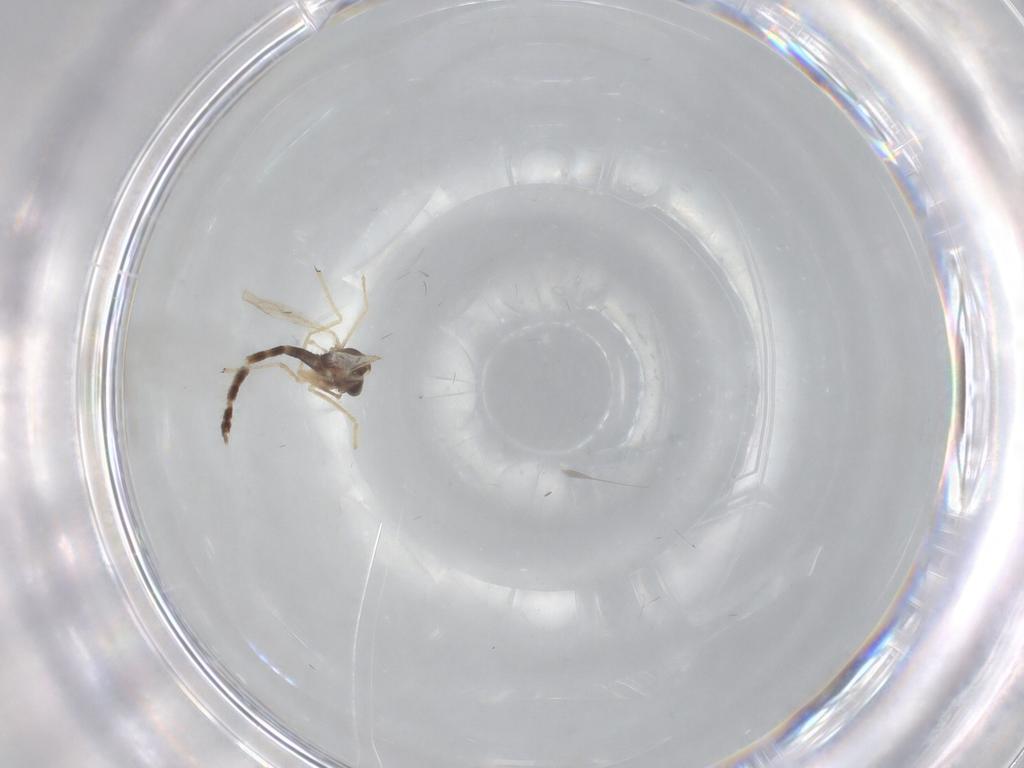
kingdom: Animalia
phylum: Arthropoda
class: Insecta
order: Diptera
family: Chironomidae
